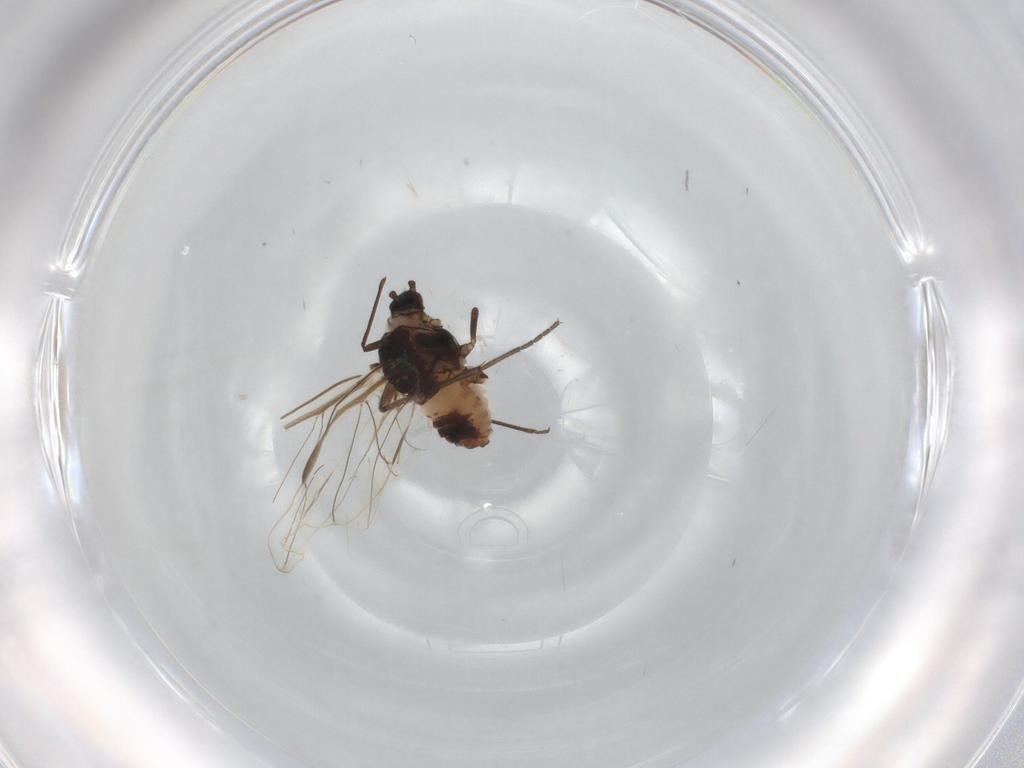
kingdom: Animalia
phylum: Arthropoda
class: Insecta
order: Hemiptera
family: Aphididae
